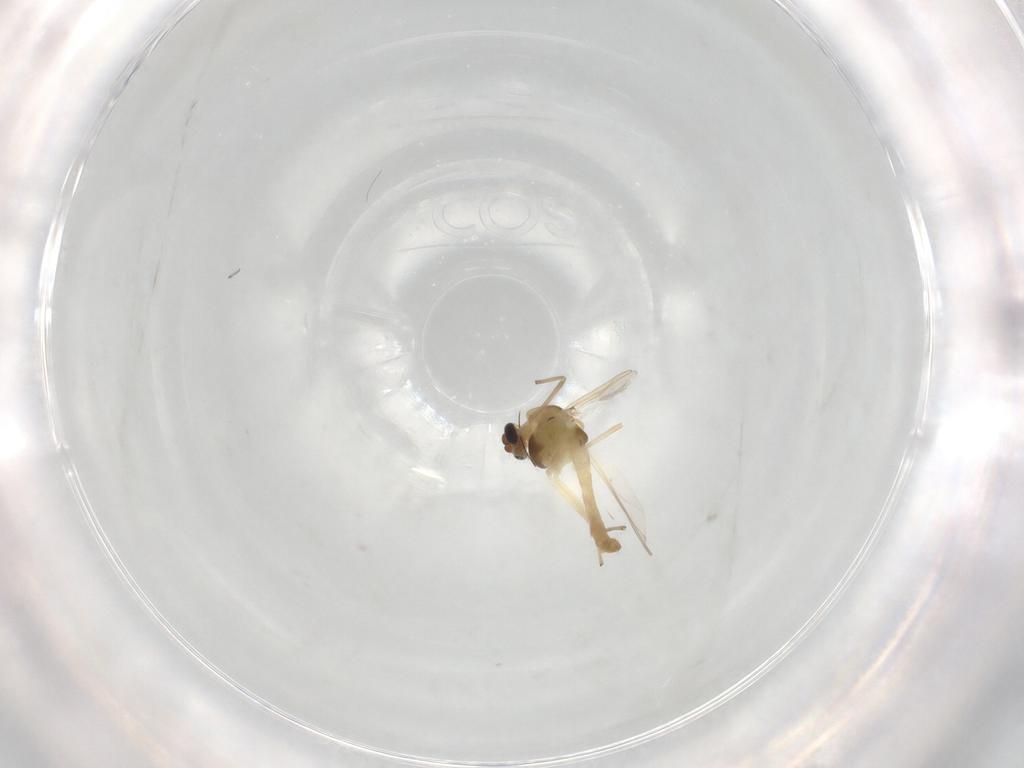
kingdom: Animalia
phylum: Arthropoda
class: Insecta
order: Diptera
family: Chironomidae
